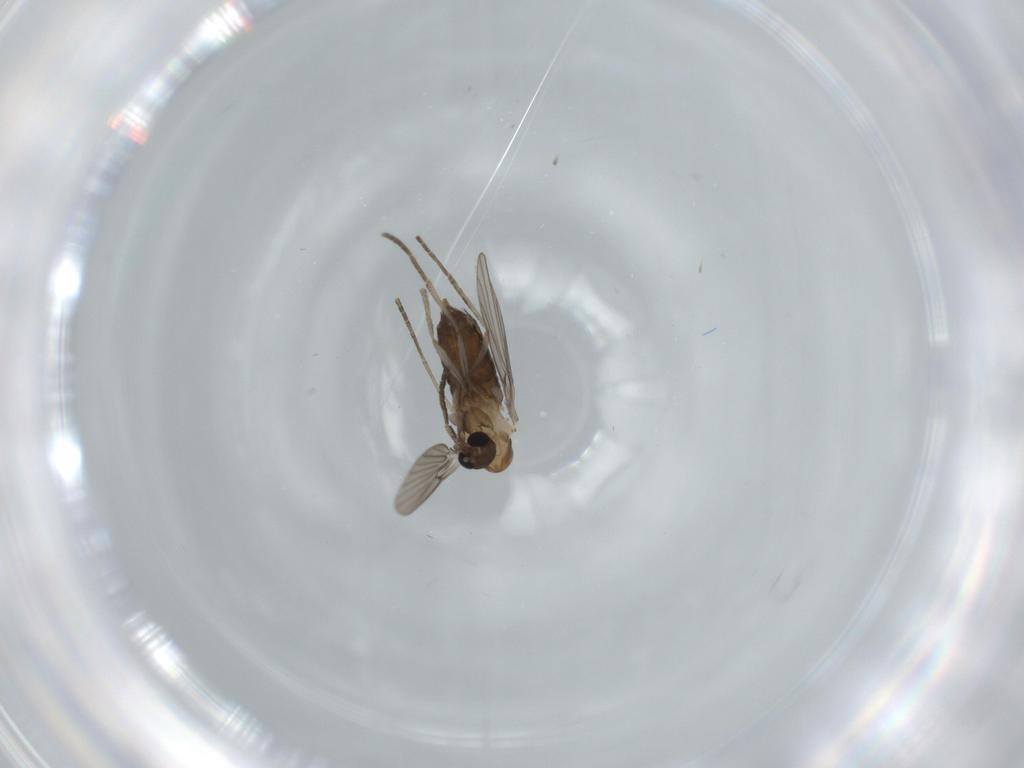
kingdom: Animalia
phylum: Arthropoda
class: Insecta
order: Diptera
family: Psychodidae
